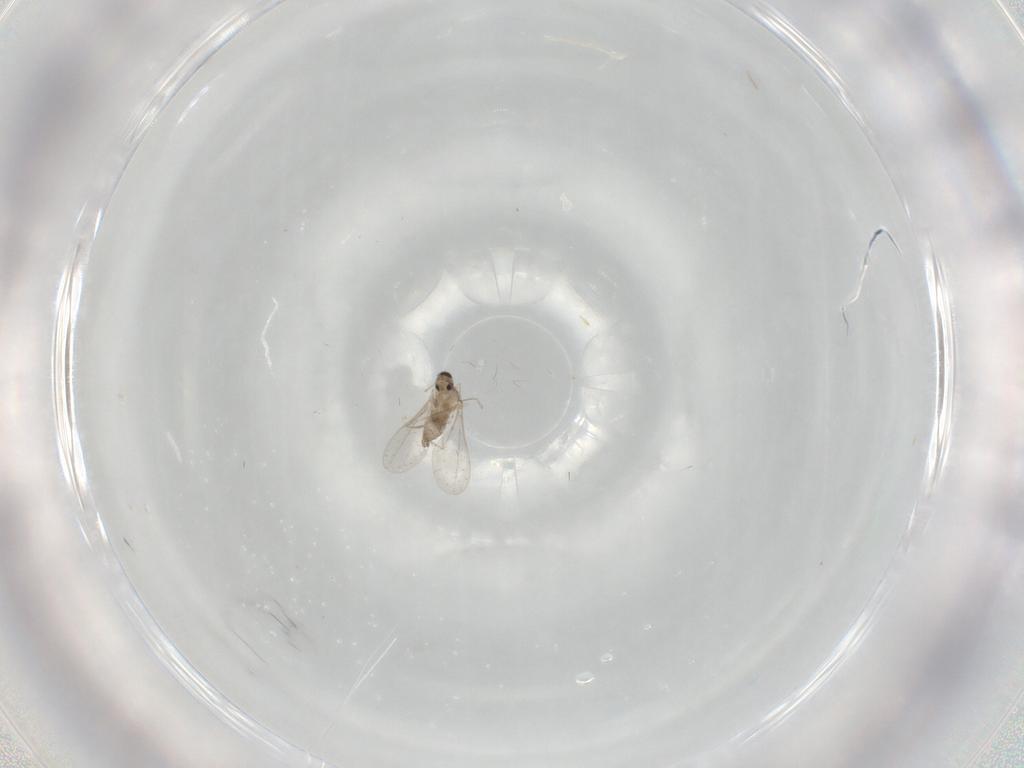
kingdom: Animalia
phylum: Arthropoda
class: Insecta
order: Diptera
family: Cecidomyiidae
